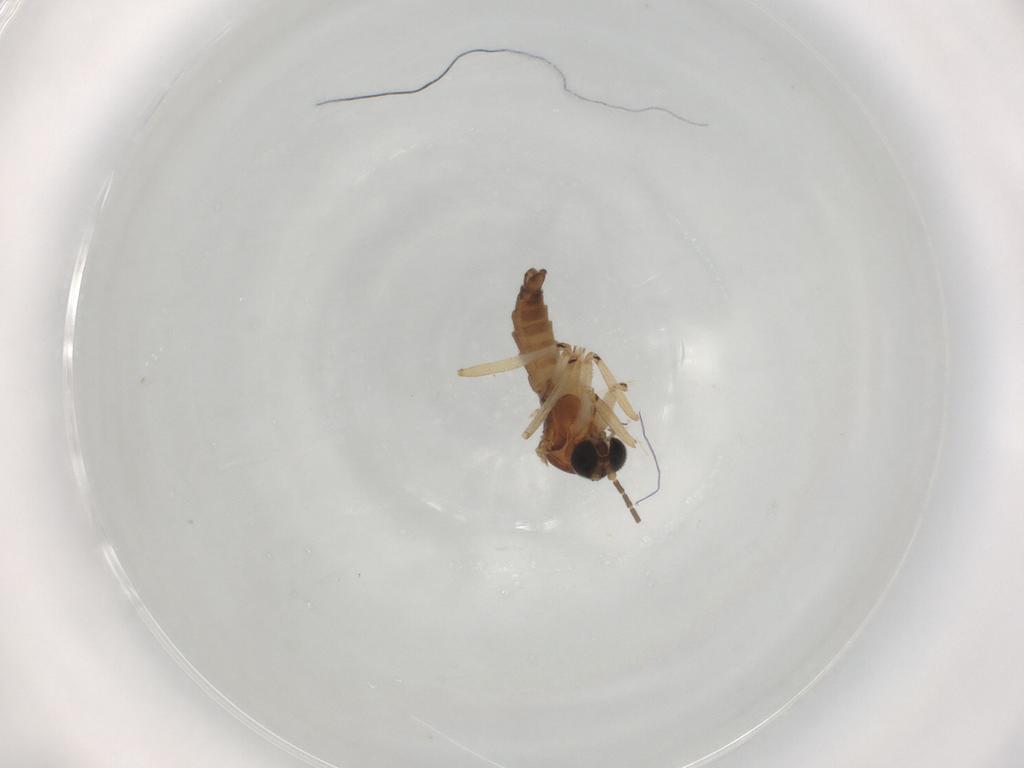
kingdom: Animalia
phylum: Arthropoda
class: Insecta
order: Diptera
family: Sciaridae
